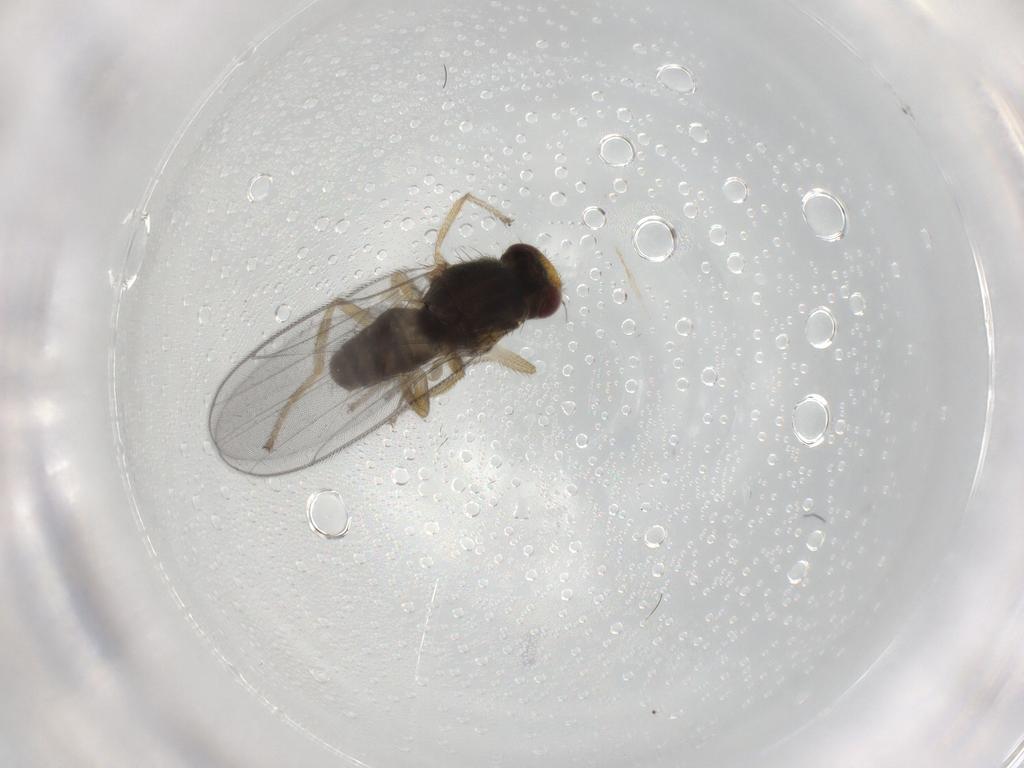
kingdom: Animalia
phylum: Arthropoda
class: Insecta
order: Diptera
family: Chloropidae
